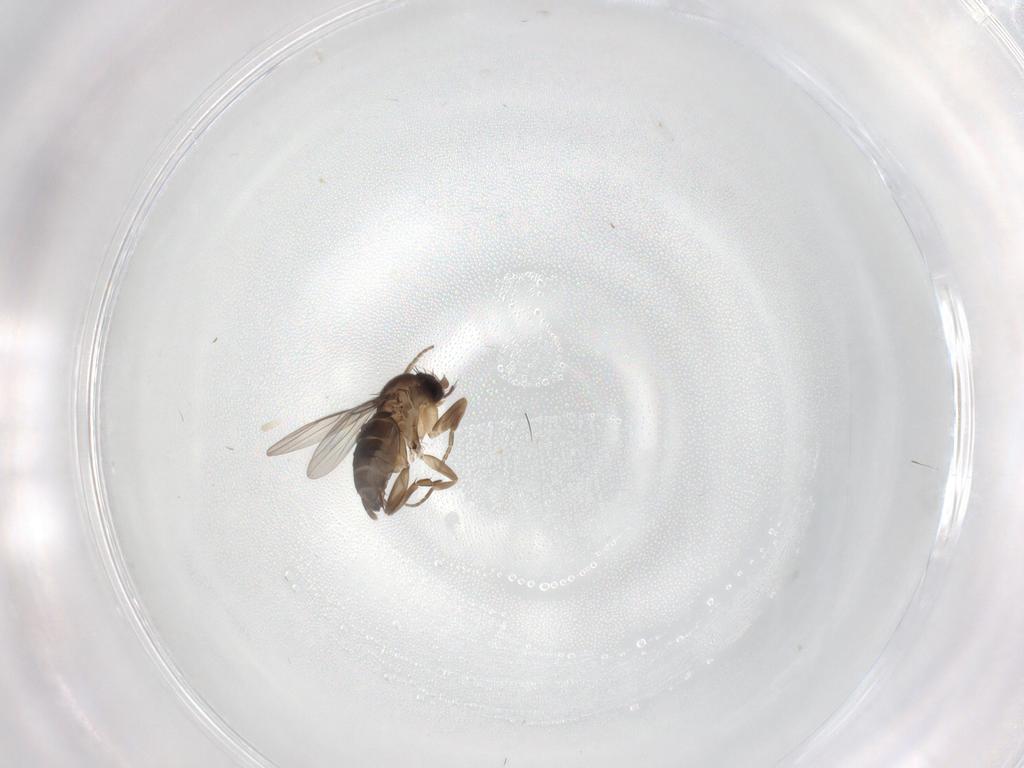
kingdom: Animalia
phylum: Arthropoda
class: Insecta
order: Diptera
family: Phoridae
